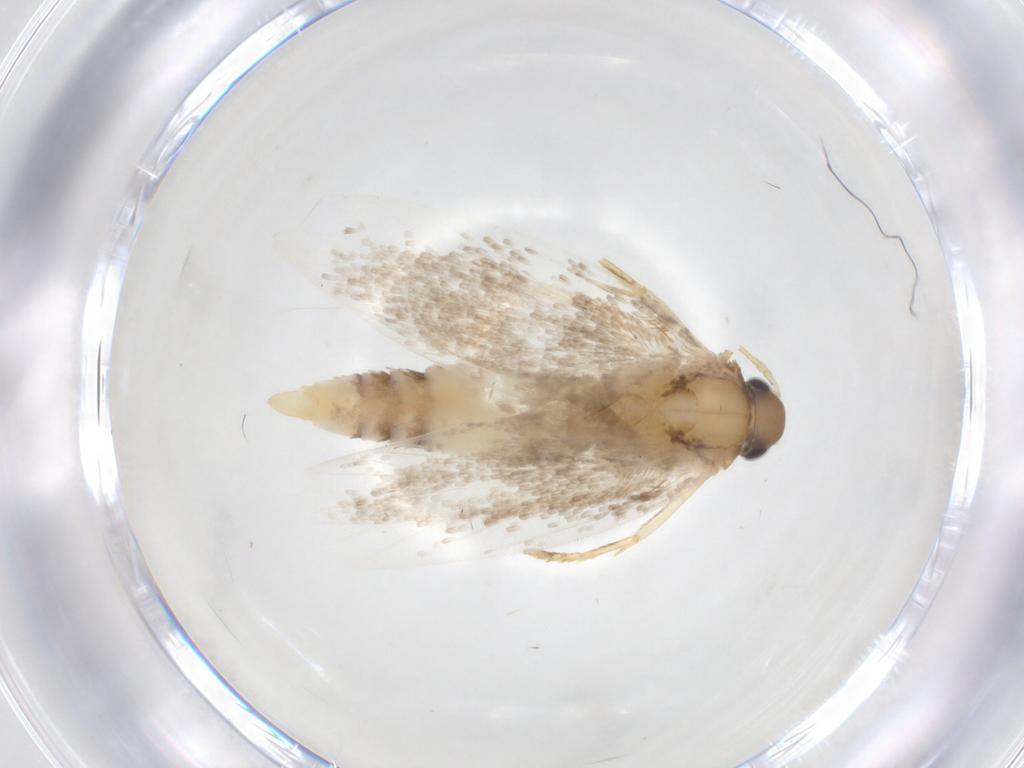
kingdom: Animalia
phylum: Arthropoda
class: Insecta
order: Lepidoptera
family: Autostichidae
